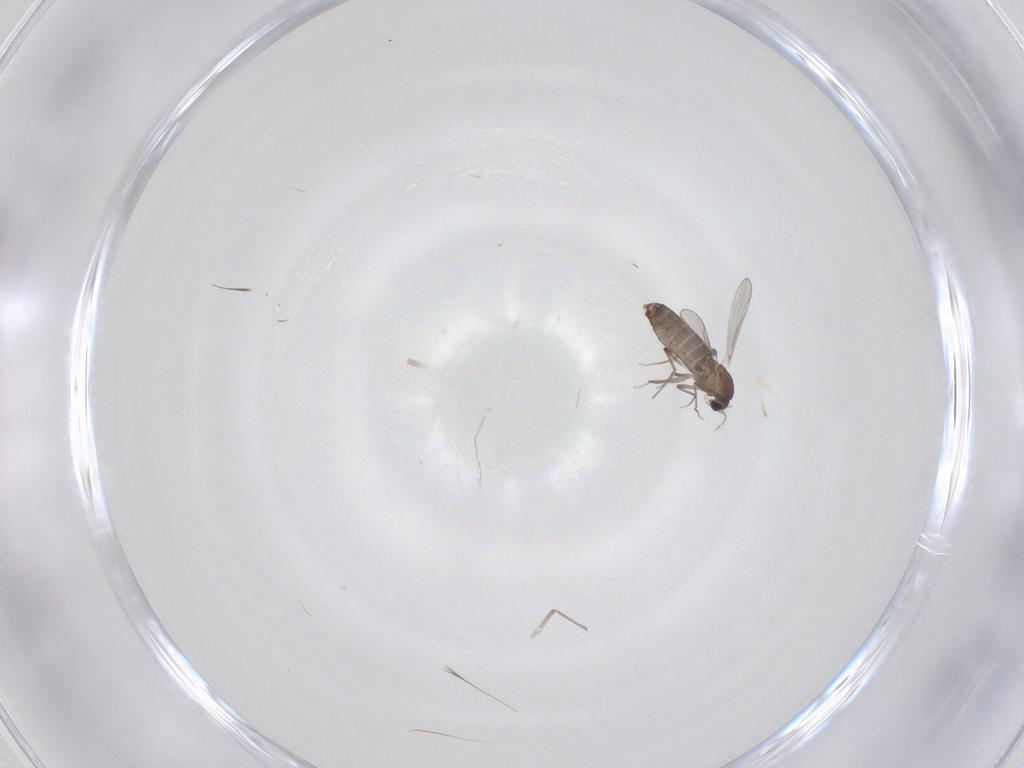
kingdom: Animalia
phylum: Arthropoda
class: Insecta
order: Diptera
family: Chironomidae
